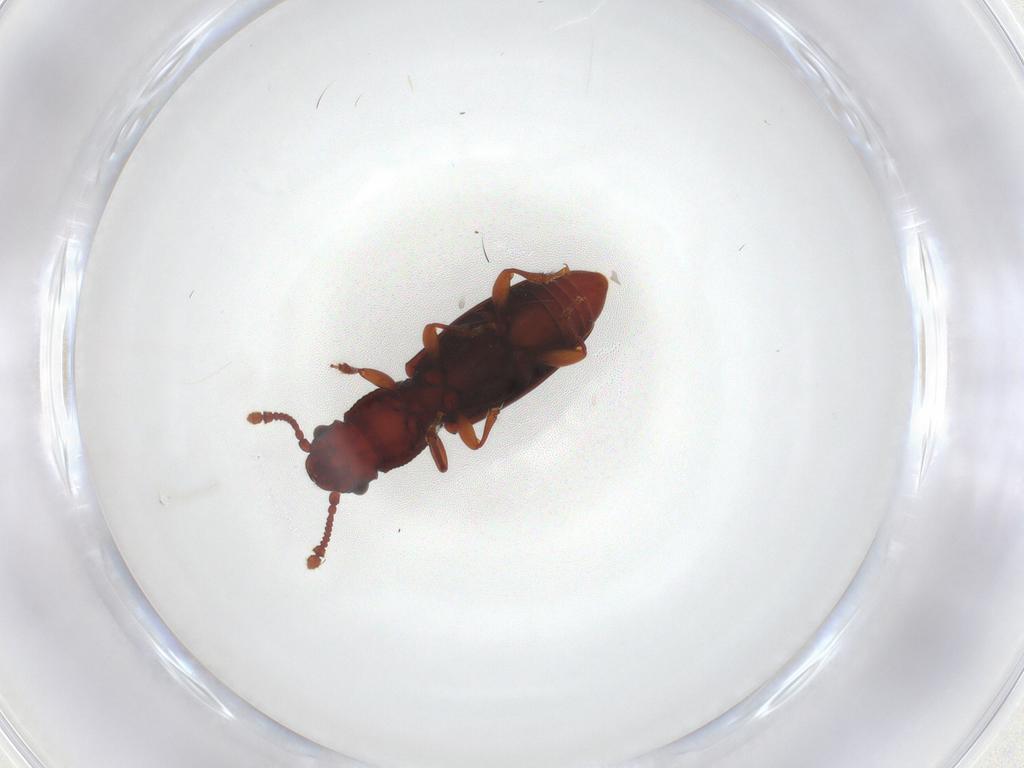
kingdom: Animalia
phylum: Arthropoda
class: Insecta
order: Coleoptera
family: Monotomidae
